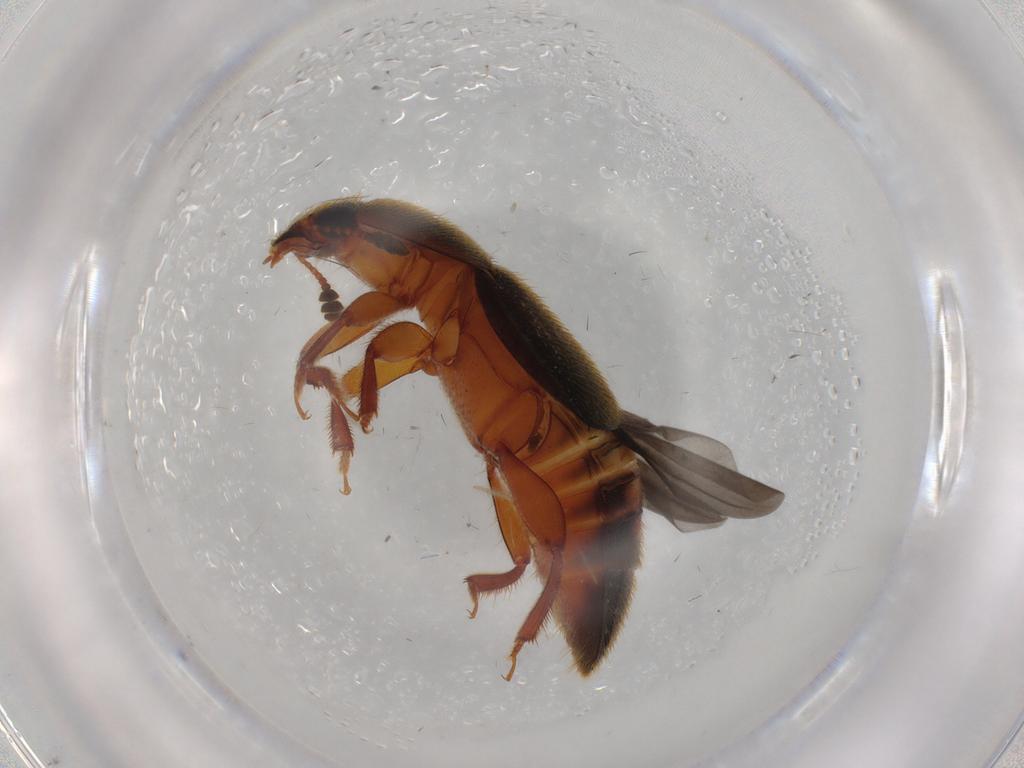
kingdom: Animalia
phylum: Arthropoda
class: Insecta
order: Coleoptera
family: Nitidulidae
